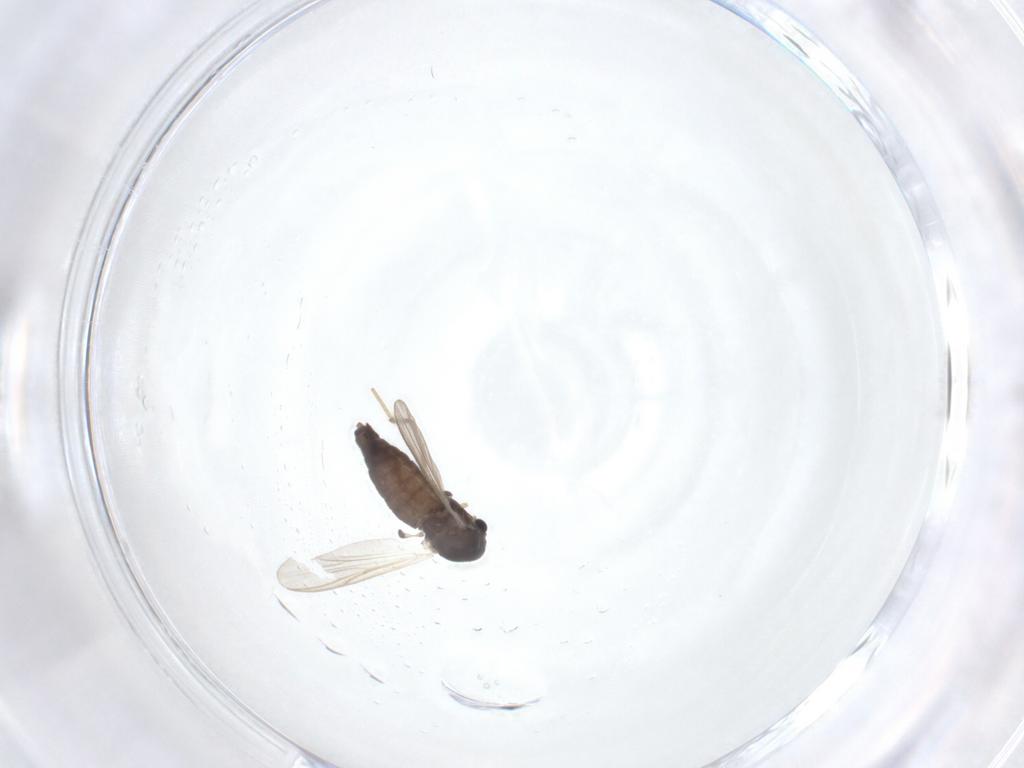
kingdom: Animalia
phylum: Arthropoda
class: Insecta
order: Diptera
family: Chironomidae
